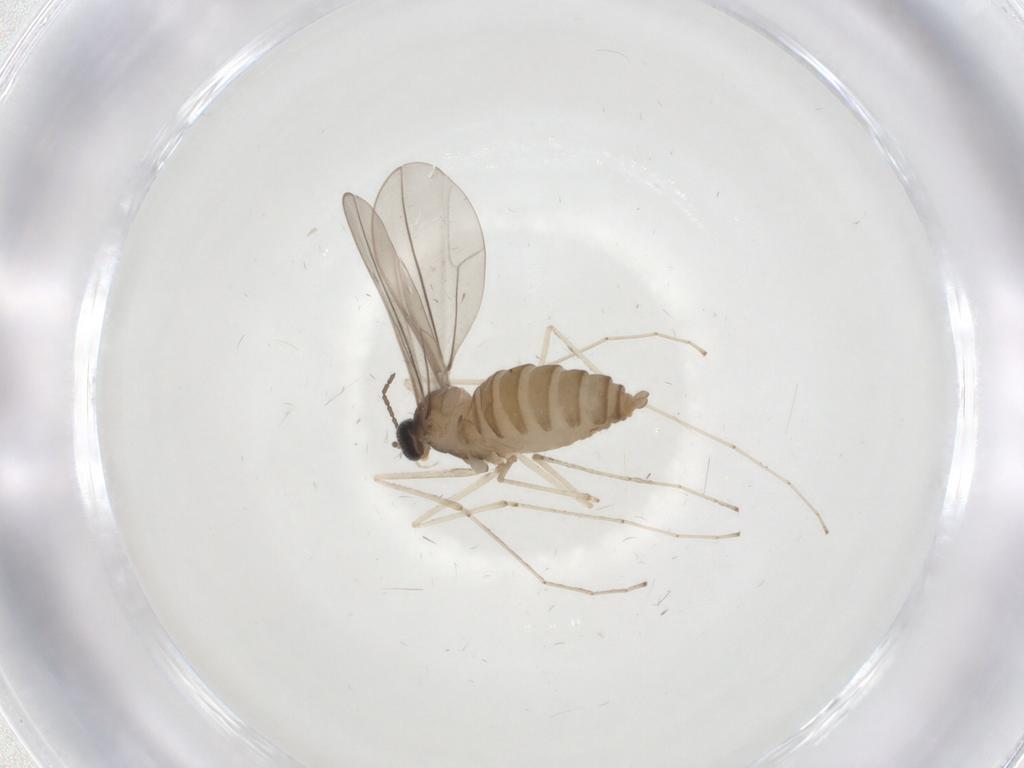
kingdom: Animalia
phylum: Arthropoda
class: Insecta
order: Diptera
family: Cecidomyiidae
